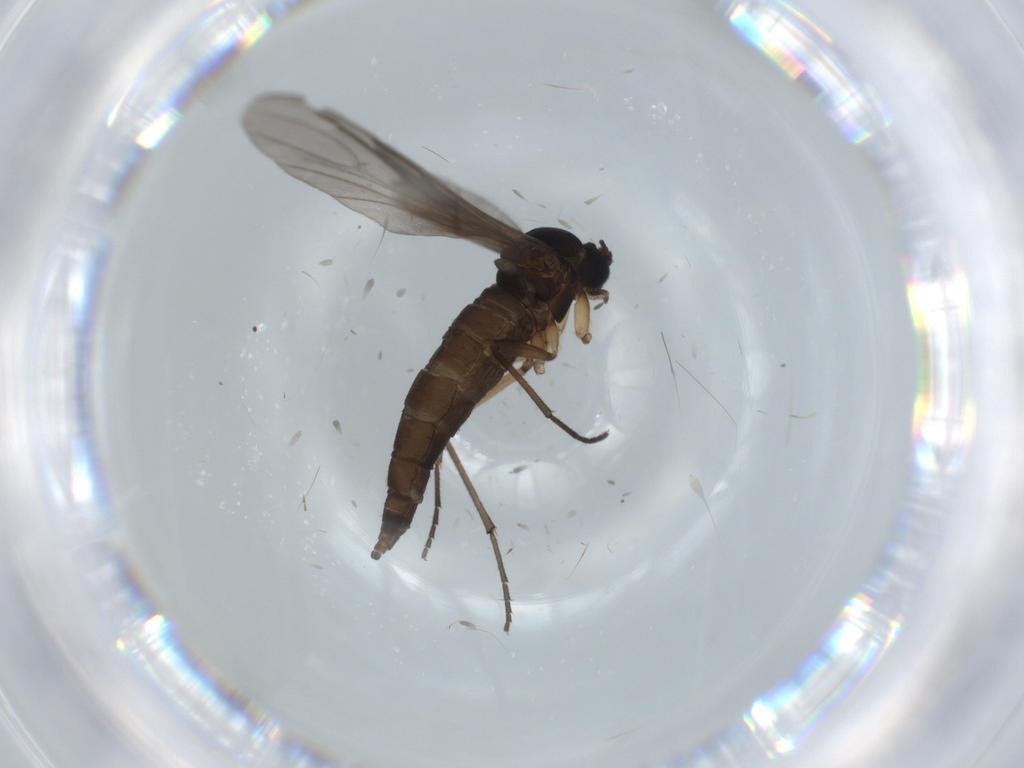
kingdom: Animalia
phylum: Arthropoda
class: Insecta
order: Diptera
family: Sciaridae
